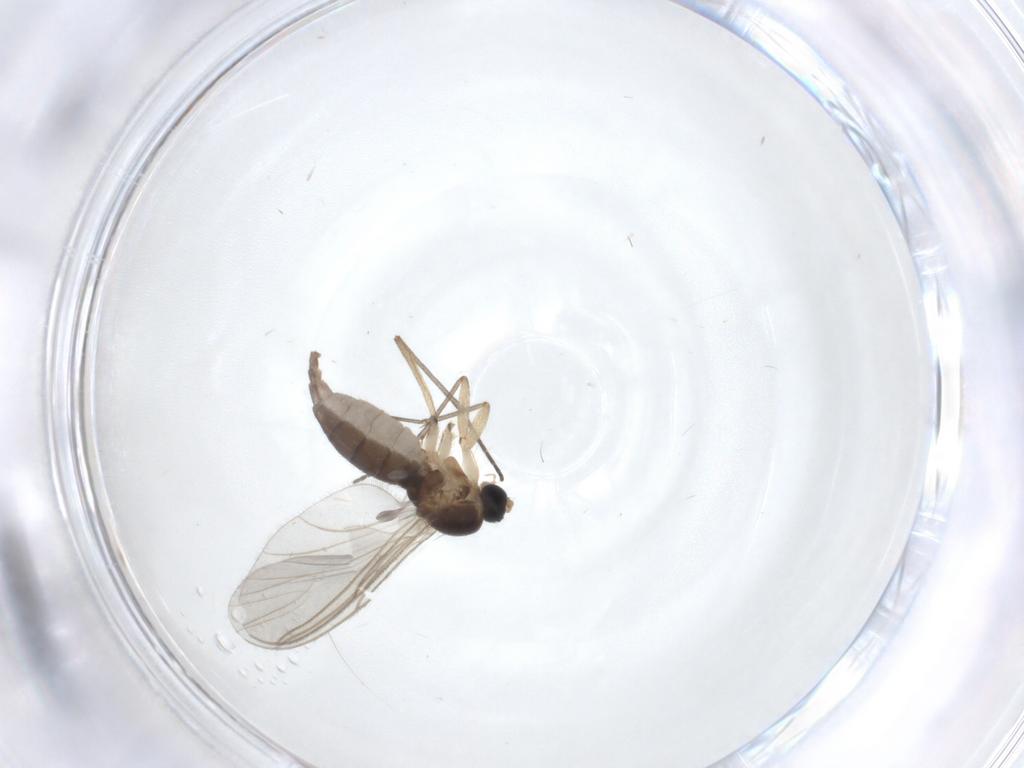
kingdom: Animalia
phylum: Arthropoda
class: Insecta
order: Diptera
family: Sciaridae
